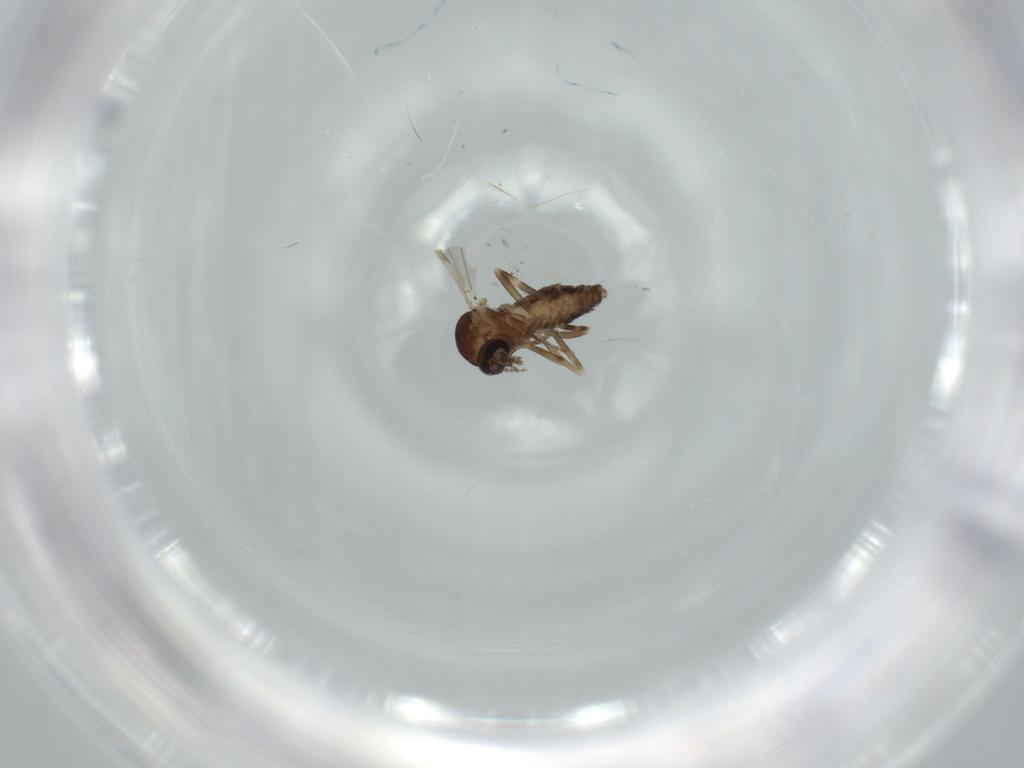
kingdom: Animalia
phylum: Arthropoda
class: Insecta
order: Diptera
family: Ceratopogonidae
